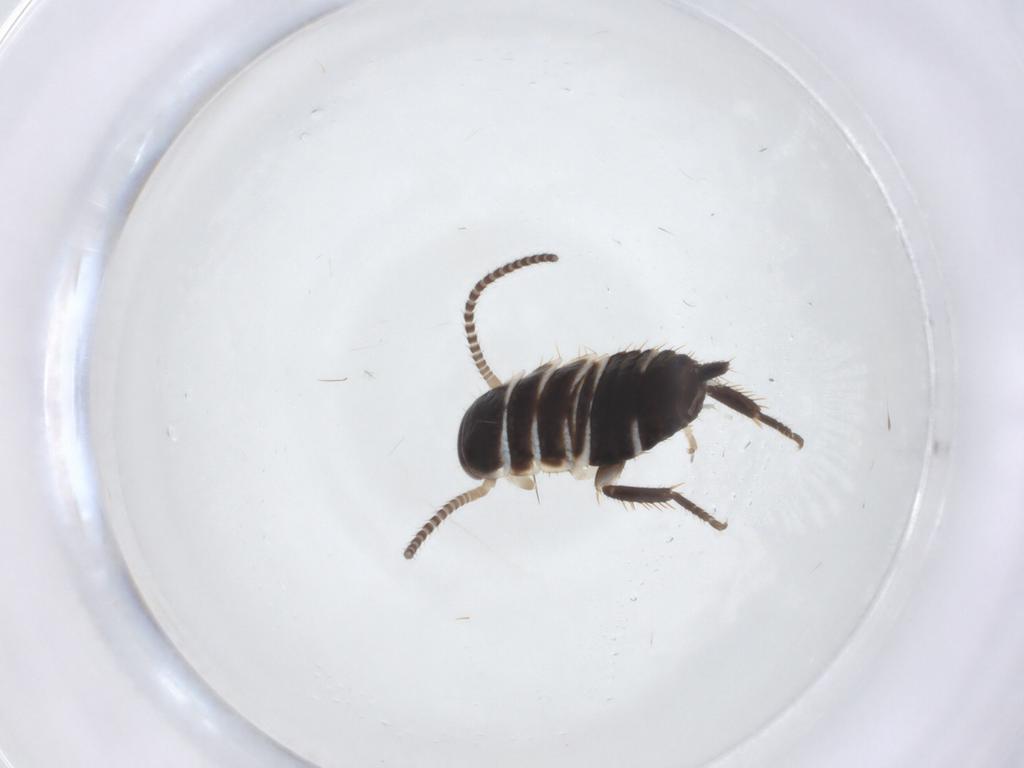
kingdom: Animalia
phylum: Arthropoda
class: Insecta
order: Blattodea
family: Ectobiidae
